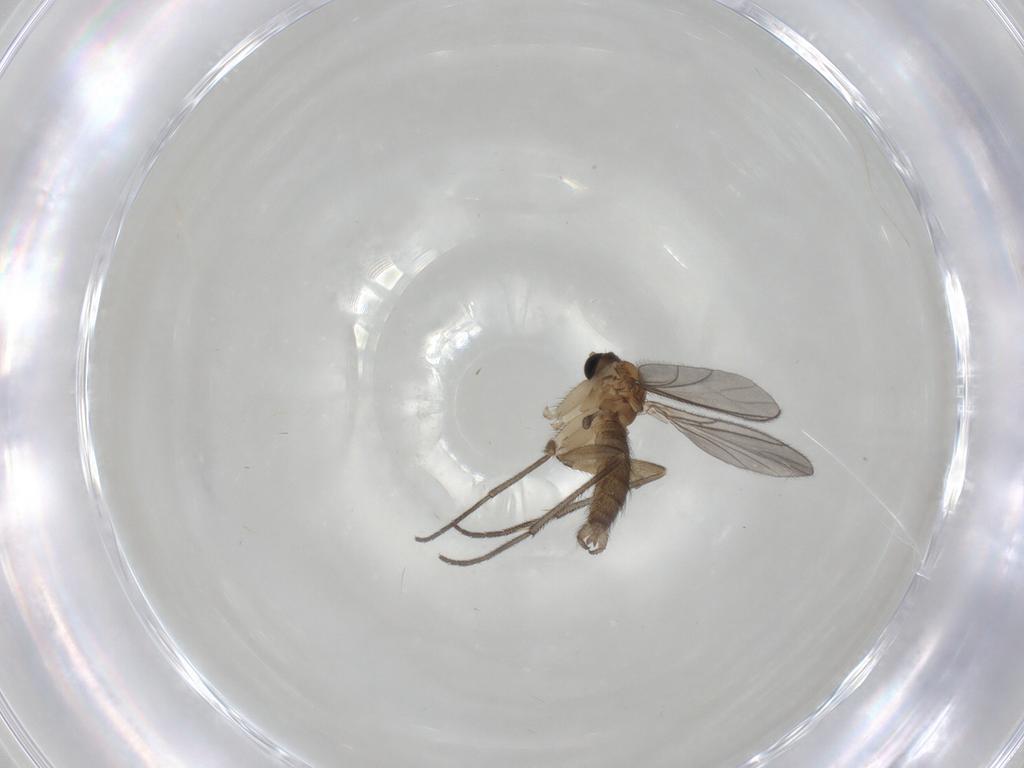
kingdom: Animalia
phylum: Arthropoda
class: Insecta
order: Diptera
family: Sciaridae
